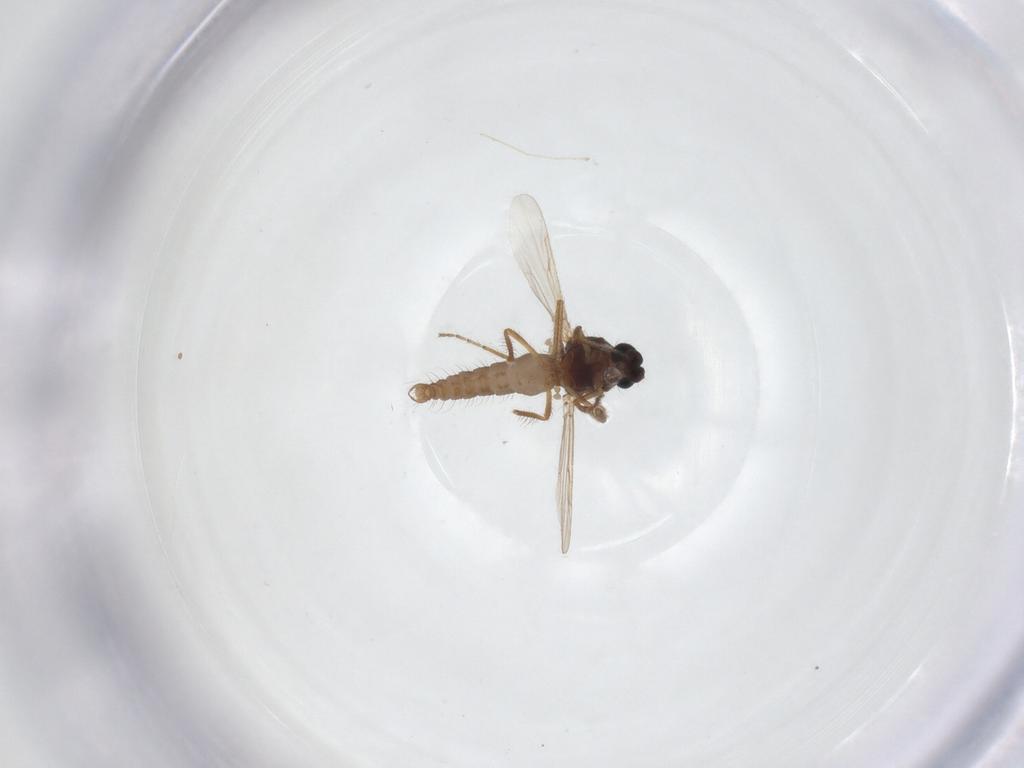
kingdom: Animalia
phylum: Arthropoda
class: Insecta
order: Diptera
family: Ceratopogonidae
